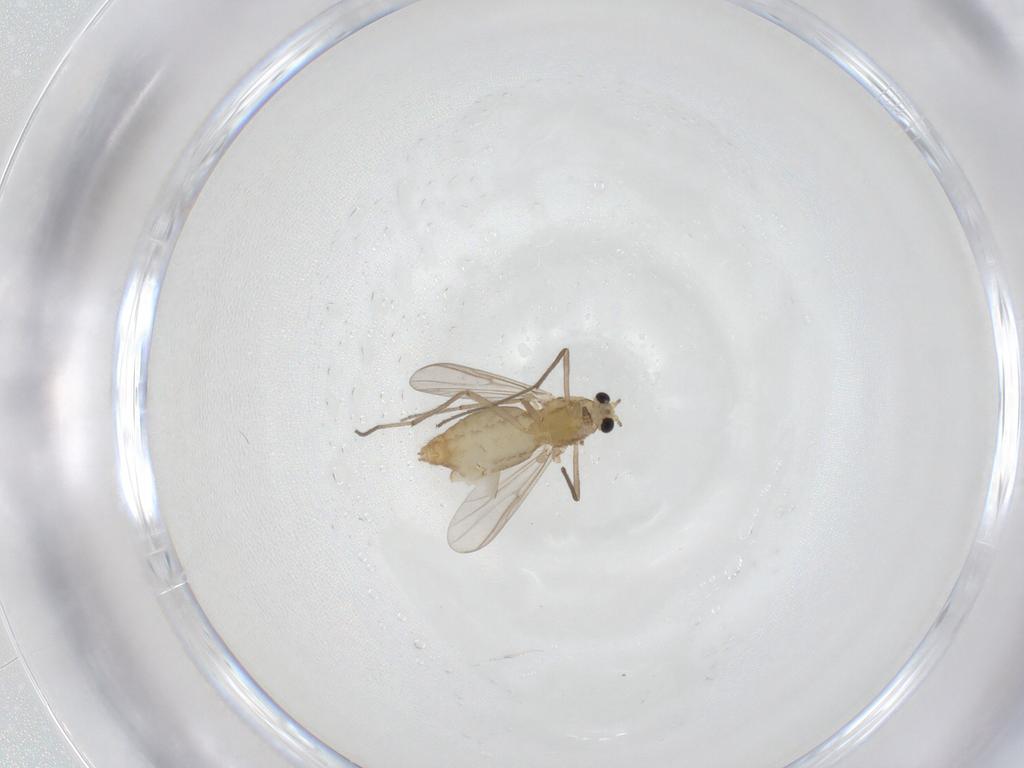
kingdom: Animalia
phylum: Arthropoda
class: Insecta
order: Diptera
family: Chironomidae
